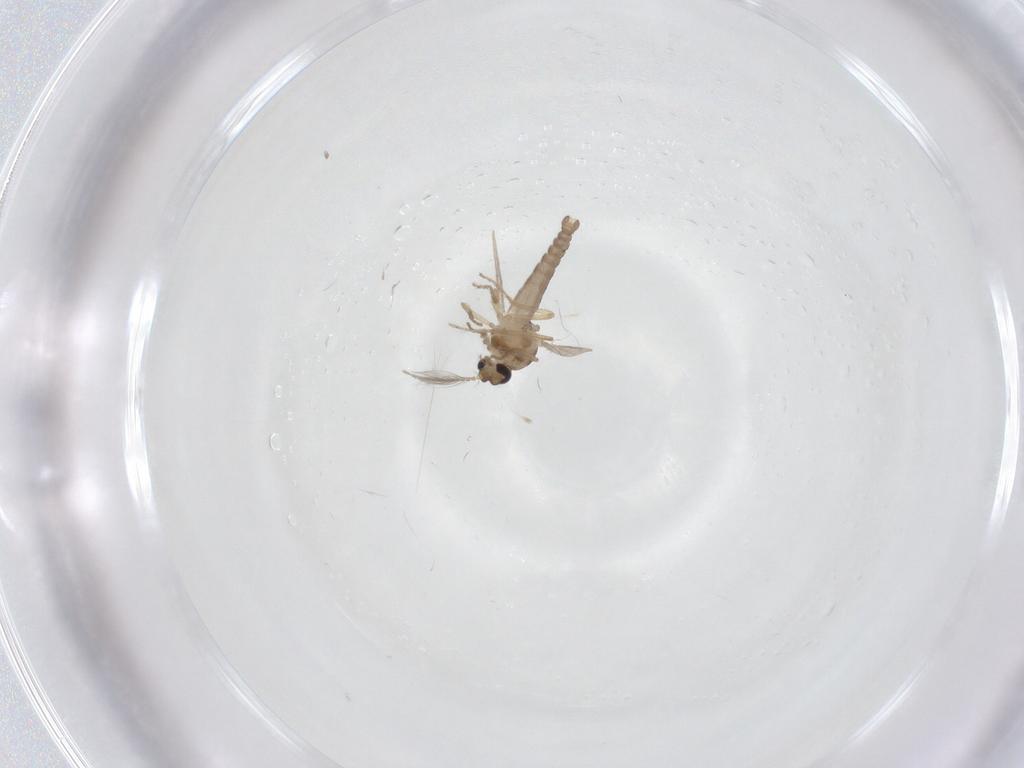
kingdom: Animalia
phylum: Arthropoda
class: Insecta
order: Diptera
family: Ceratopogonidae
